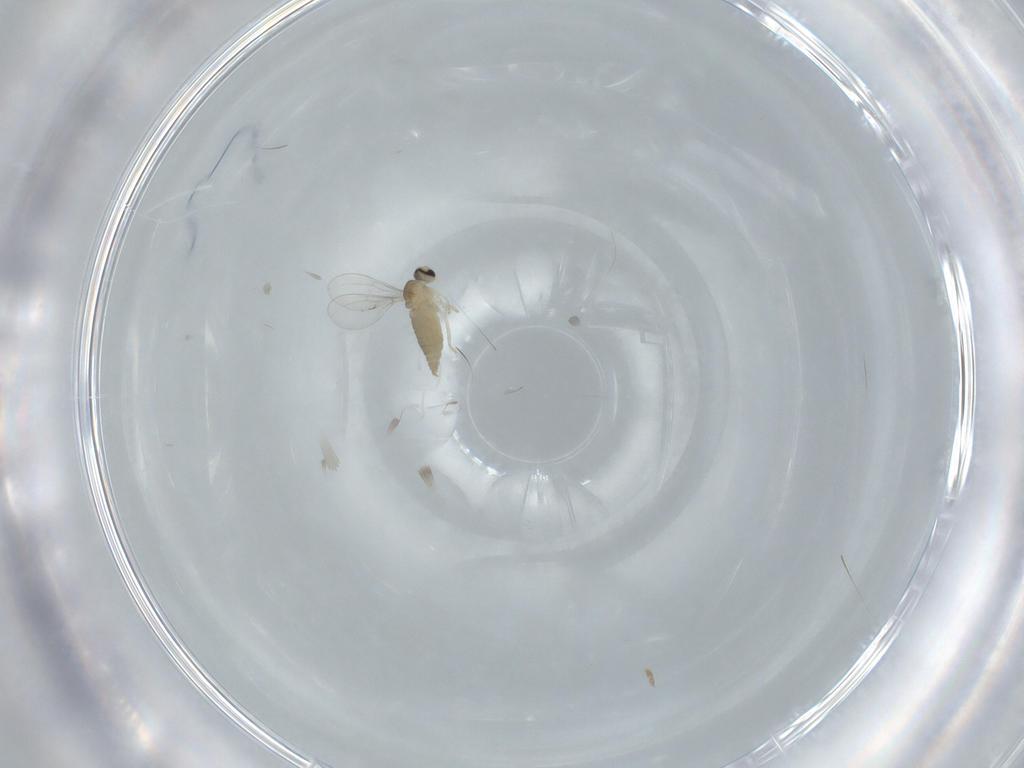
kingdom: Animalia
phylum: Arthropoda
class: Insecta
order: Diptera
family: Cecidomyiidae
